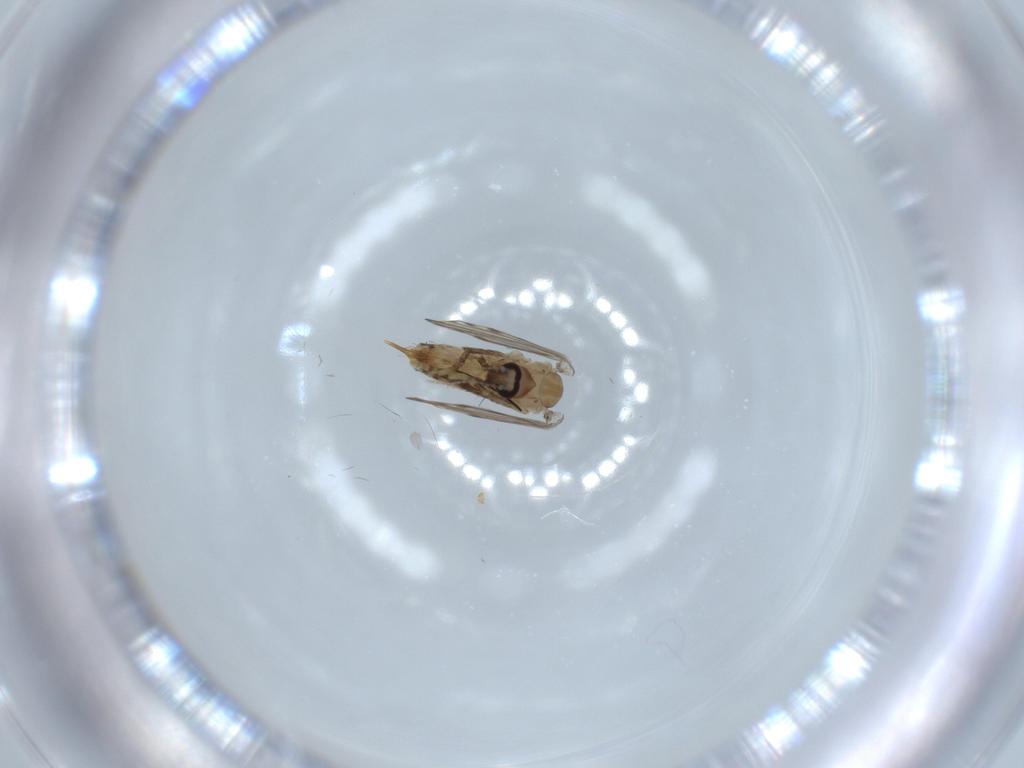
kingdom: Animalia
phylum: Arthropoda
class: Insecta
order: Diptera
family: Psychodidae
